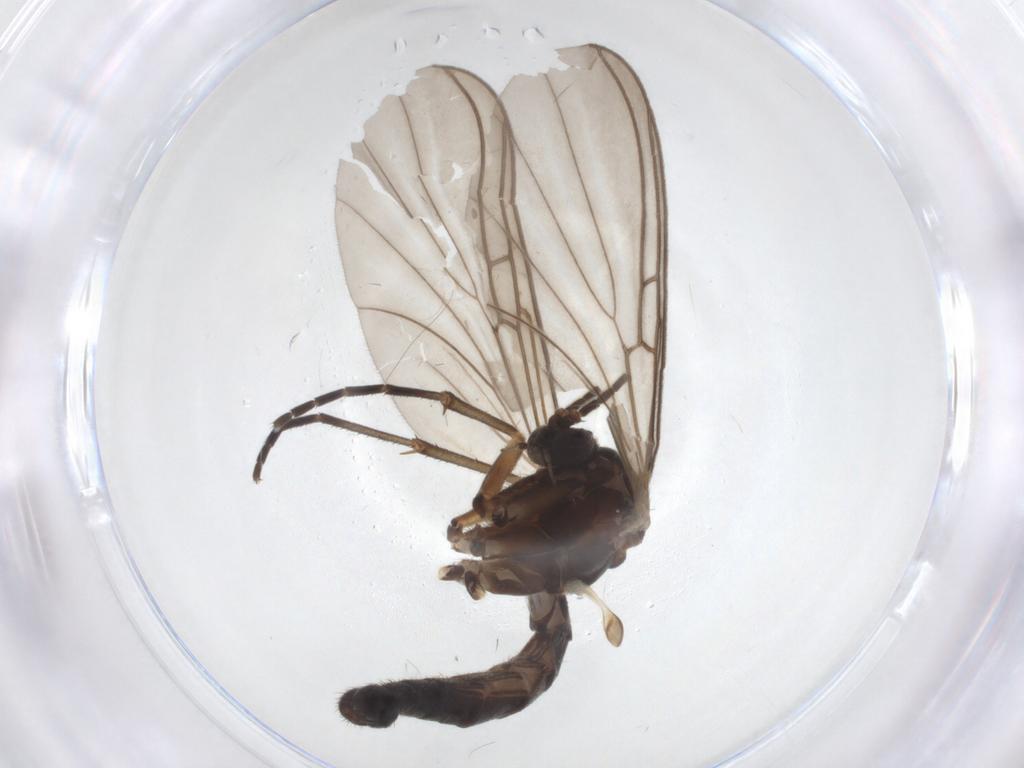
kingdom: Animalia
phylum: Arthropoda
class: Insecta
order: Diptera
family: Mycetophilidae
